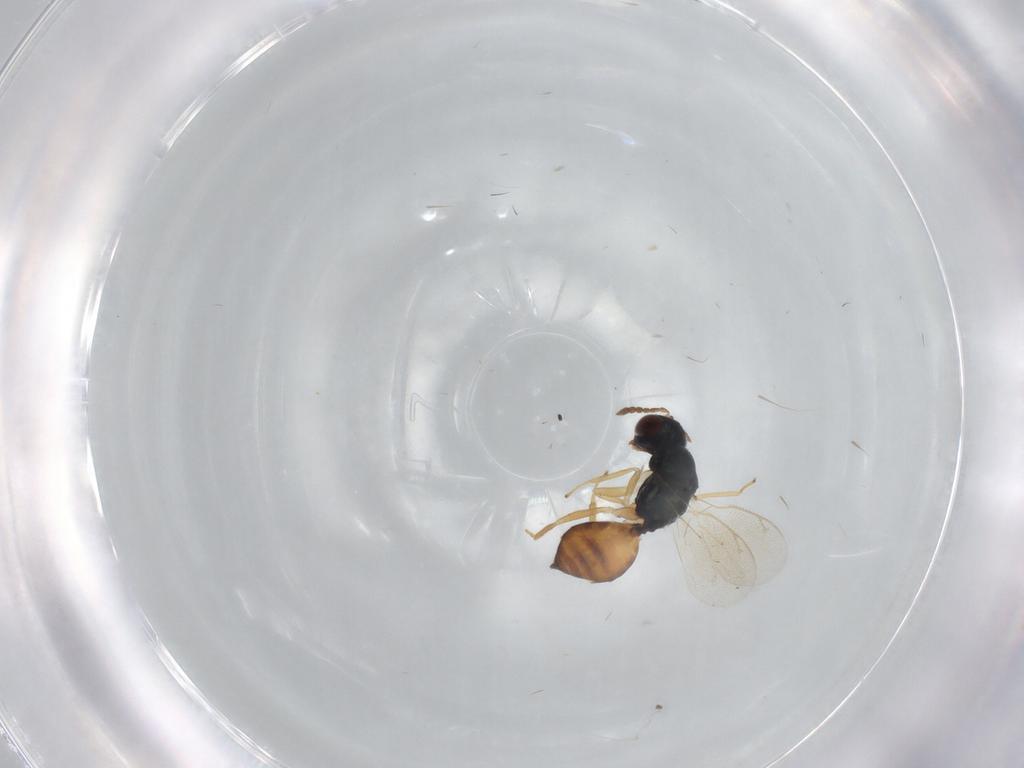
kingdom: Animalia
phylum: Arthropoda
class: Insecta
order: Hymenoptera
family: Eulophidae
